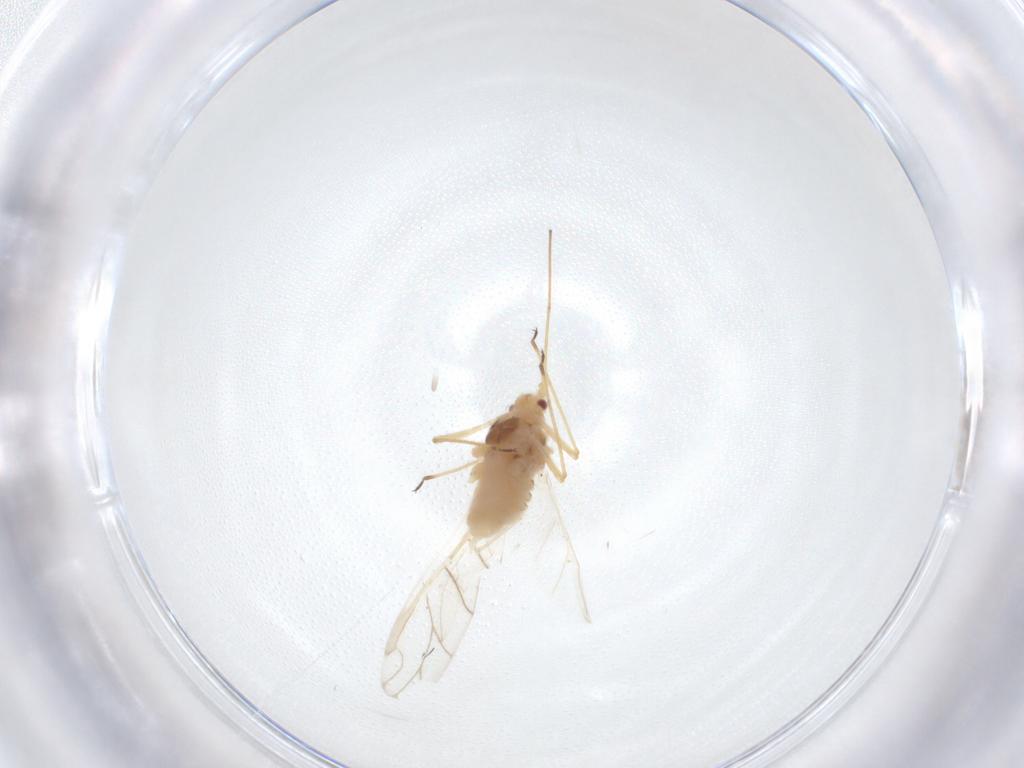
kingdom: Animalia
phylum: Arthropoda
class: Insecta
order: Hemiptera
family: Aphididae
